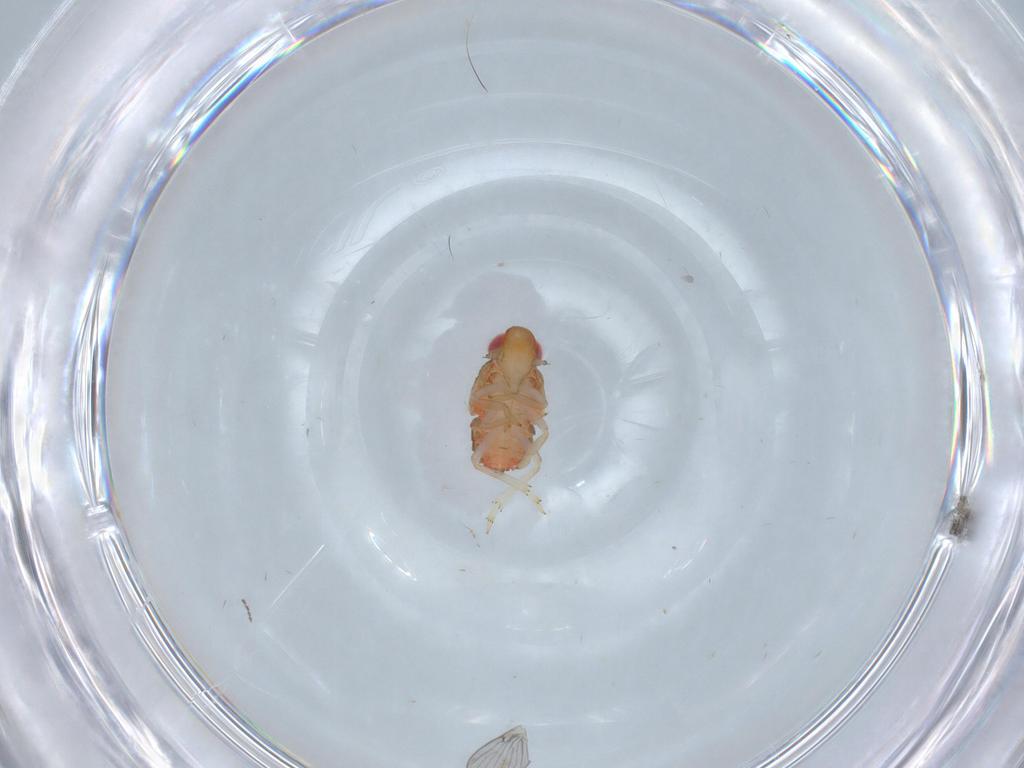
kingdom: Animalia
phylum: Arthropoda
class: Insecta
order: Hemiptera
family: Issidae
